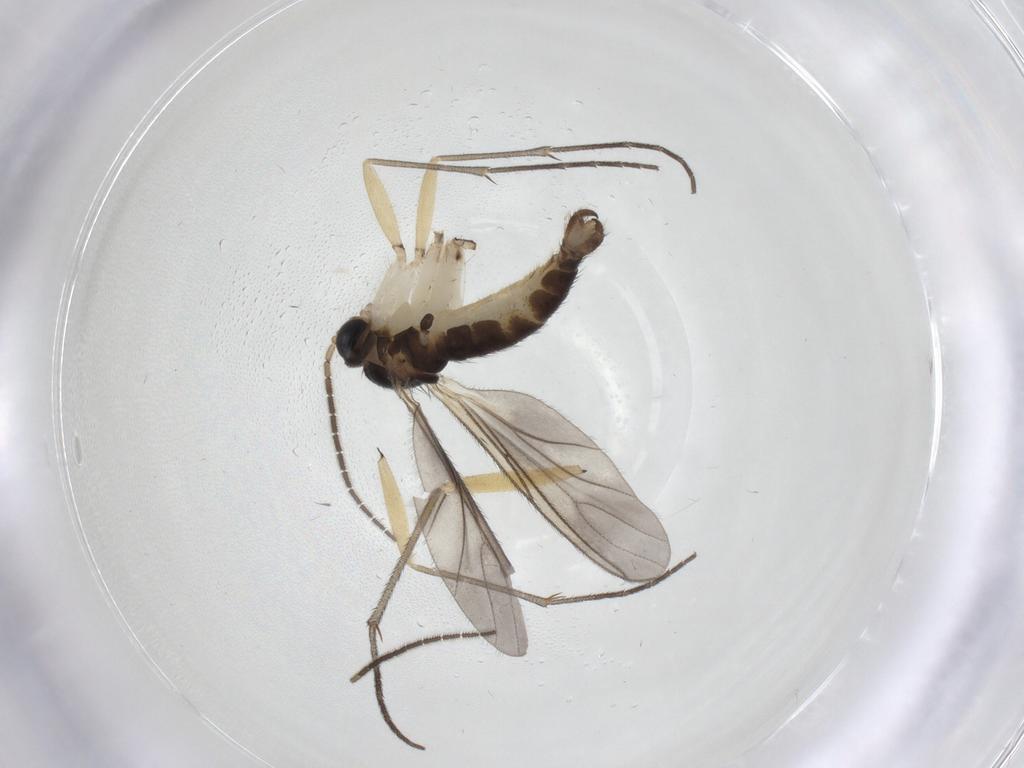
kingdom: Animalia
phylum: Arthropoda
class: Insecta
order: Diptera
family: Sciaridae
